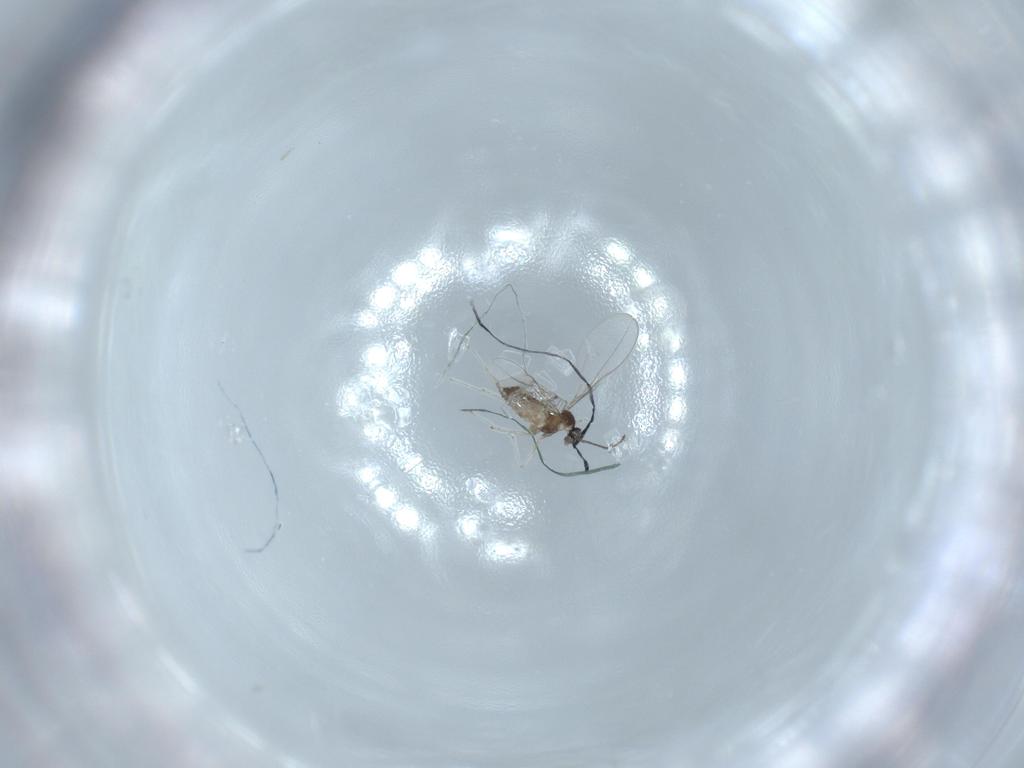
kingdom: Animalia
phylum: Arthropoda
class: Insecta
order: Diptera
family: Cecidomyiidae
